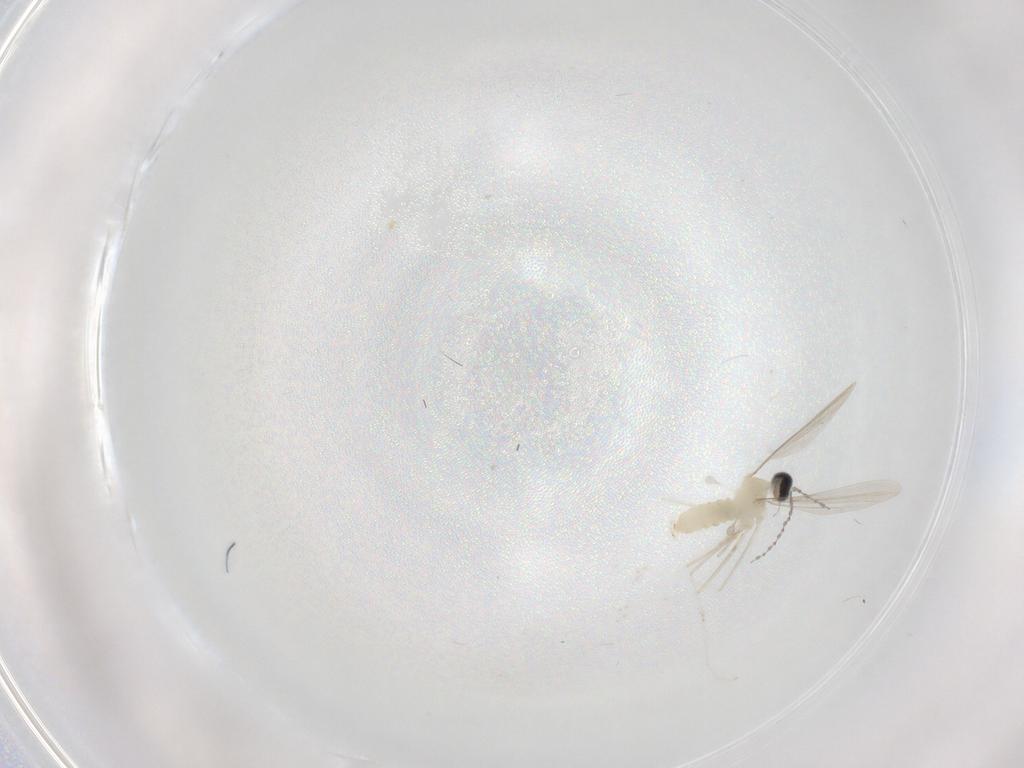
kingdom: Animalia
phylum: Arthropoda
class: Insecta
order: Diptera
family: Cecidomyiidae
